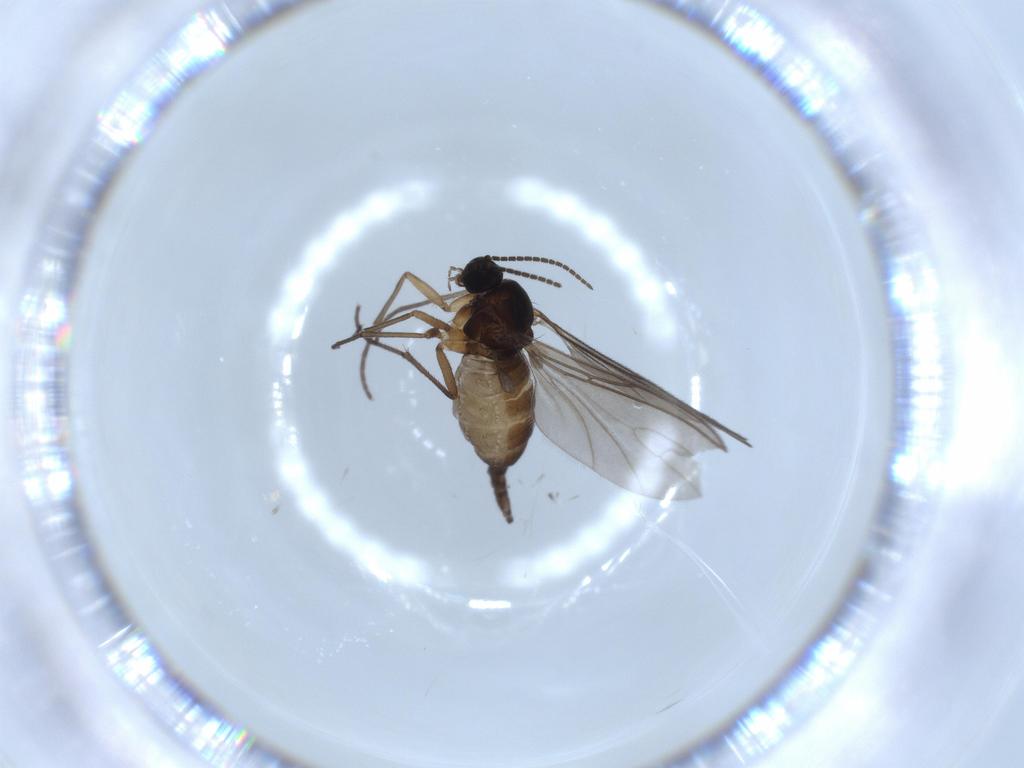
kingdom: Animalia
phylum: Arthropoda
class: Insecta
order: Diptera
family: Sciaridae
